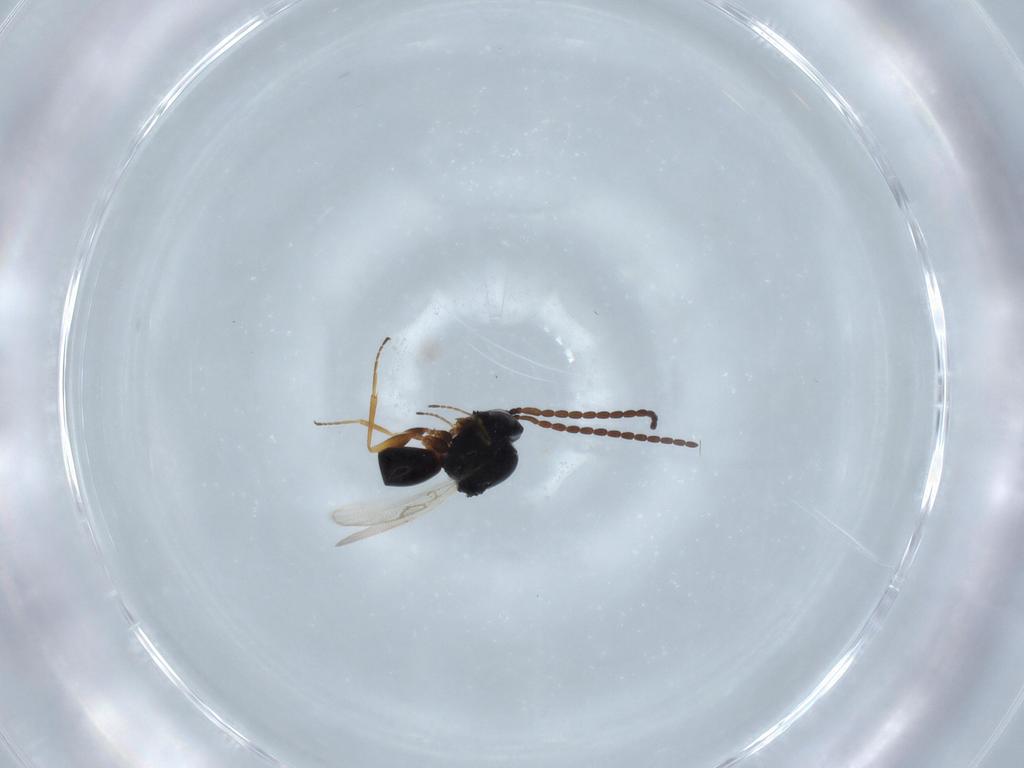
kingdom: Animalia
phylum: Arthropoda
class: Insecta
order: Hymenoptera
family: Figitidae
